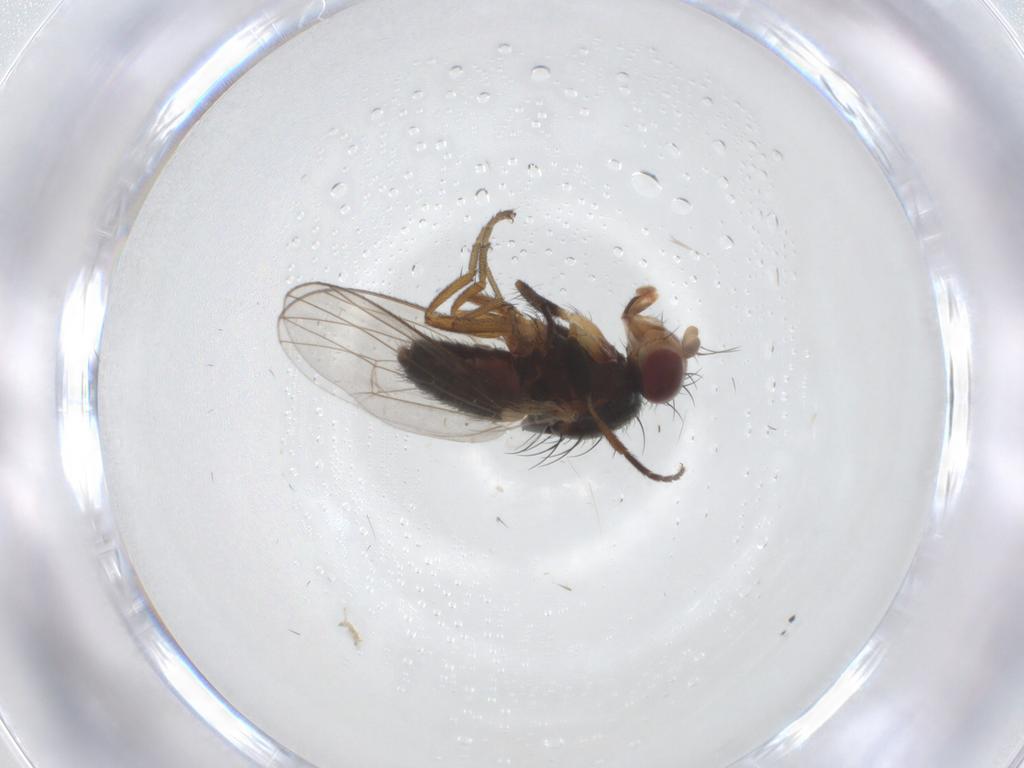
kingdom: Animalia
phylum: Arthropoda
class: Insecta
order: Diptera
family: Heleomyzidae
